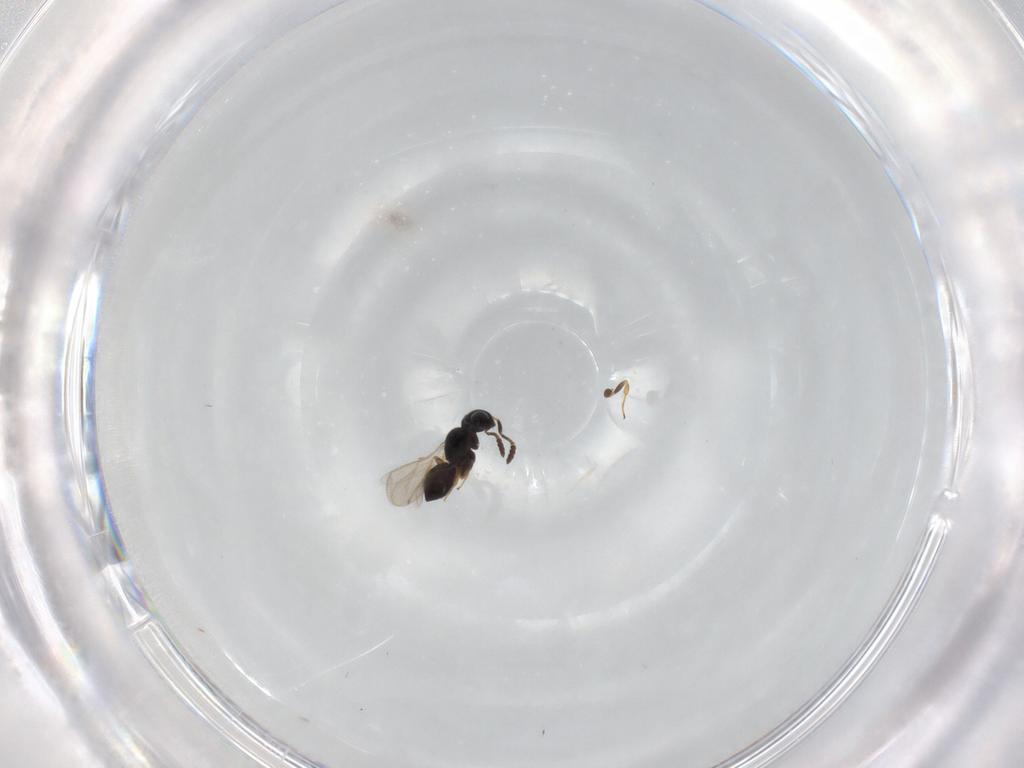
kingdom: Animalia
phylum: Arthropoda
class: Insecta
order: Hymenoptera
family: Scelionidae
